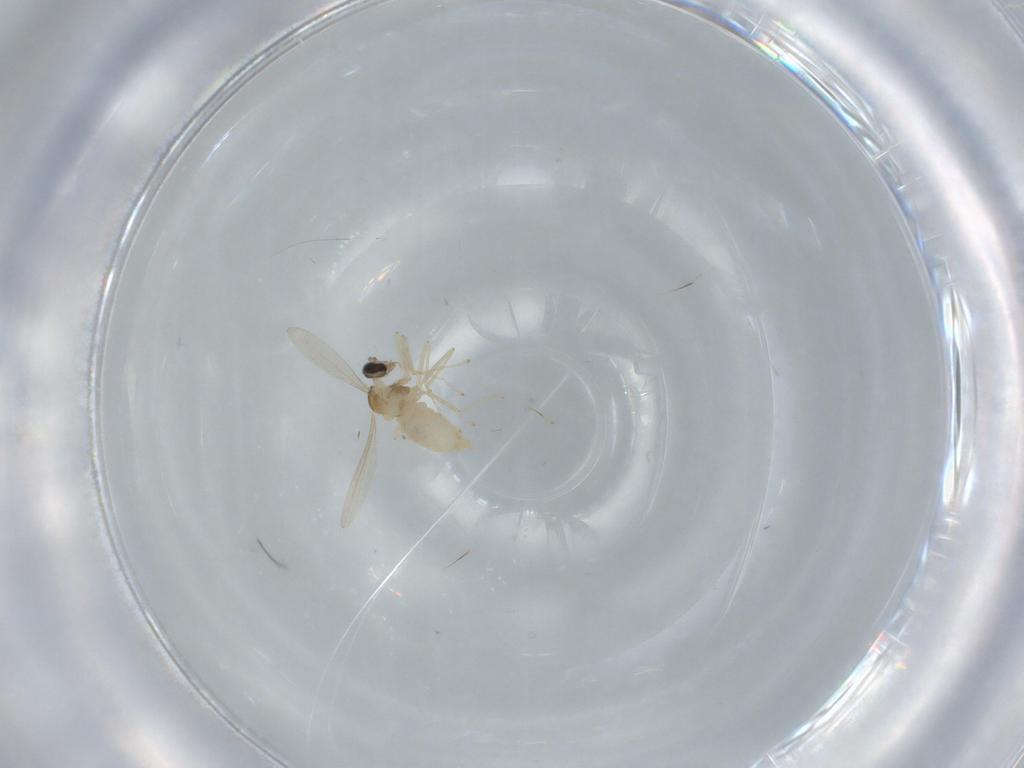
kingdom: Animalia
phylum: Arthropoda
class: Insecta
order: Diptera
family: Cecidomyiidae
